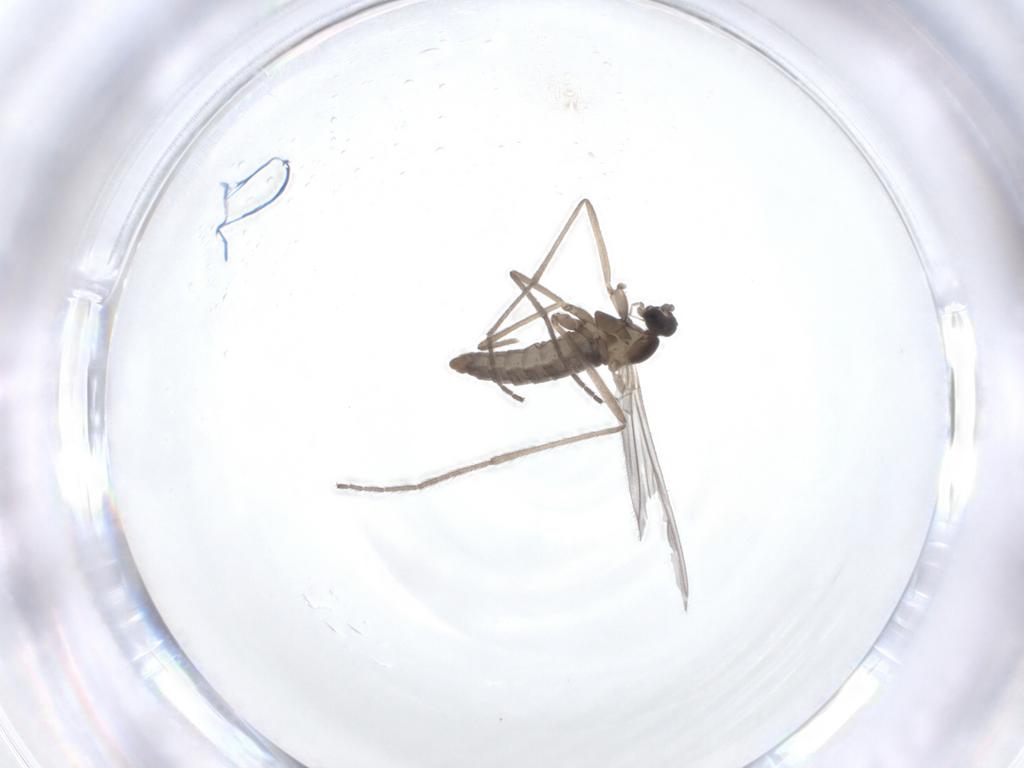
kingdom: Animalia
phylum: Arthropoda
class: Insecta
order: Diptera
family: Cecidomyiidae
